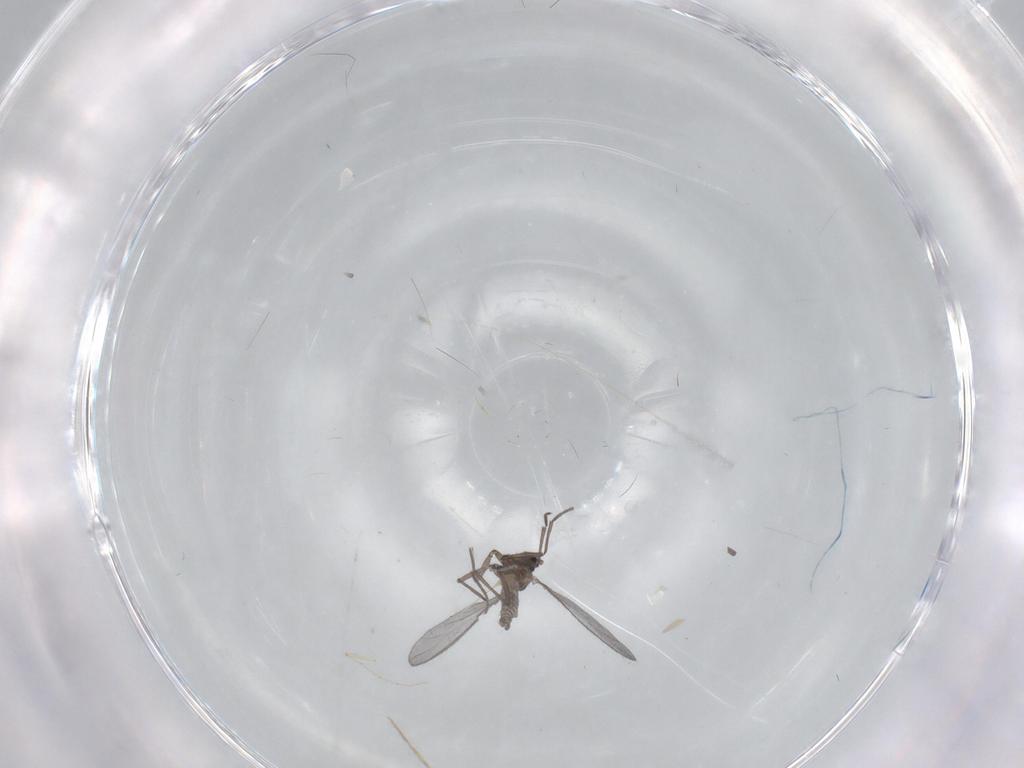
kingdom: Animalia
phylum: Arthropoda
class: Insecta
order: Diptera
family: Sciaridae
